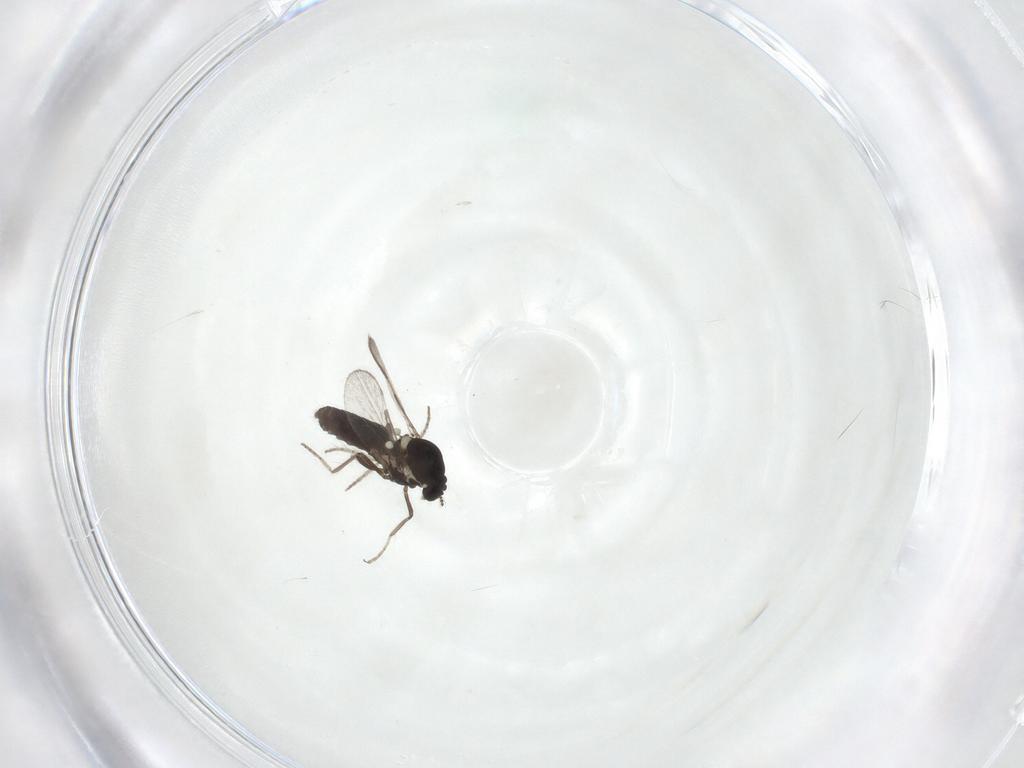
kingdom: Animalia
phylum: Arthropoda
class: Insecta
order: Diptera
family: Ceratopogonidae
